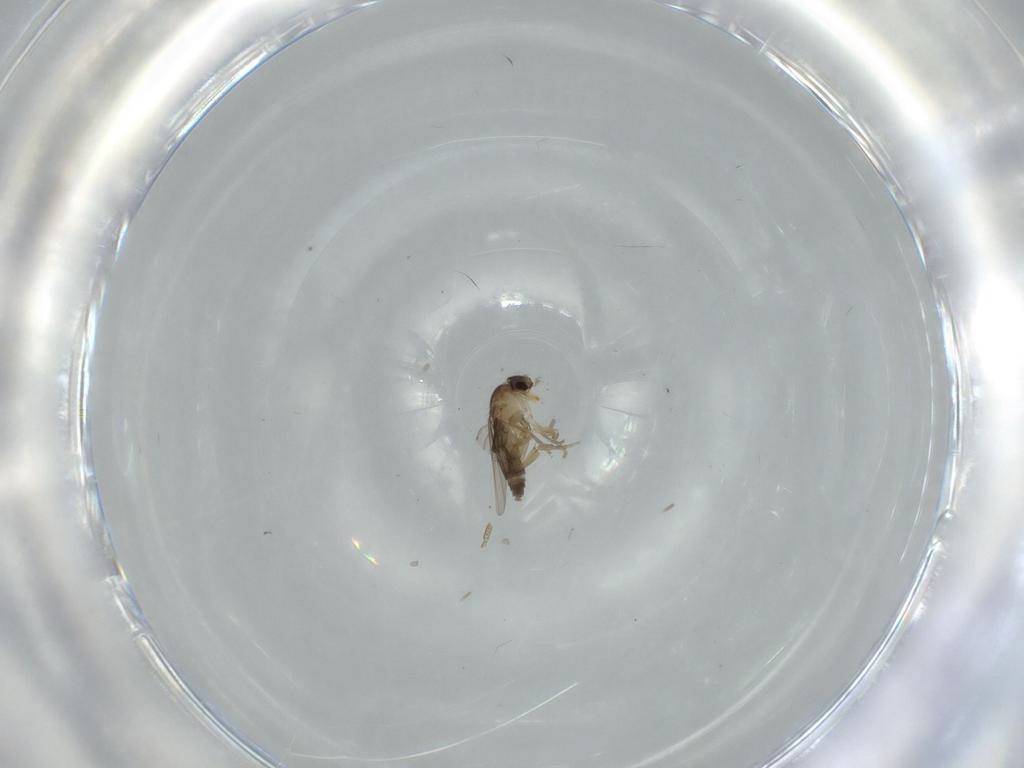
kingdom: Animalia
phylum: Arthropoda
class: Insecta
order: Diptera
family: Phoridae
